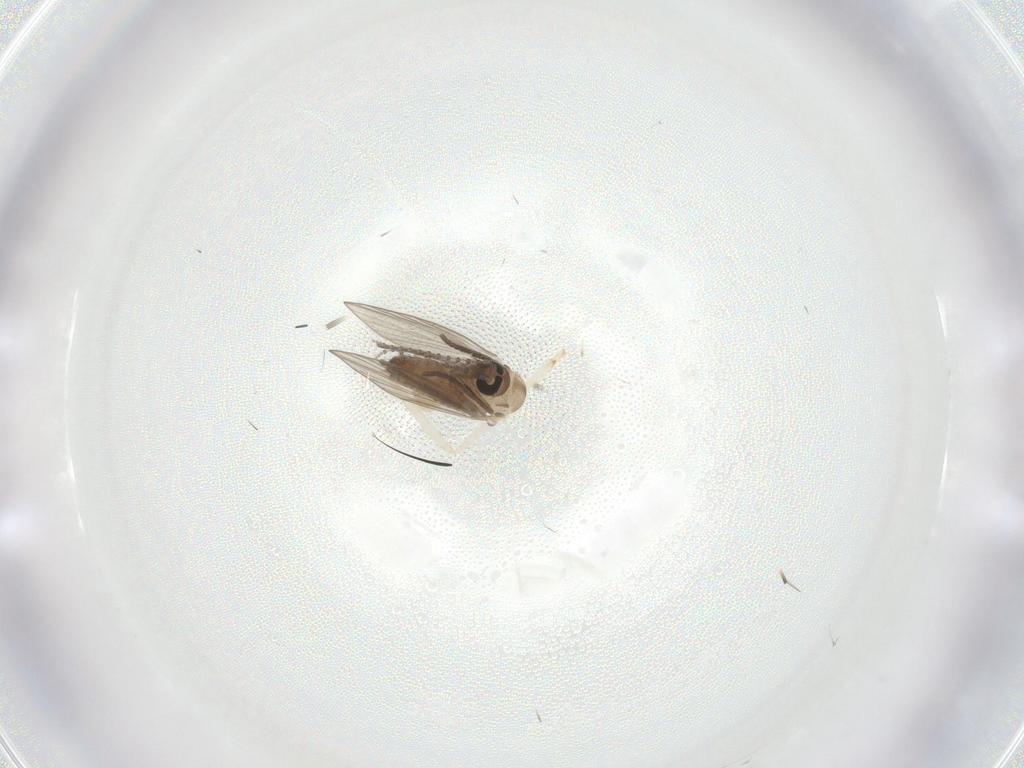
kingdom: Animalia
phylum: Arthropoda
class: Insecta
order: Diptera
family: Psychodidae
